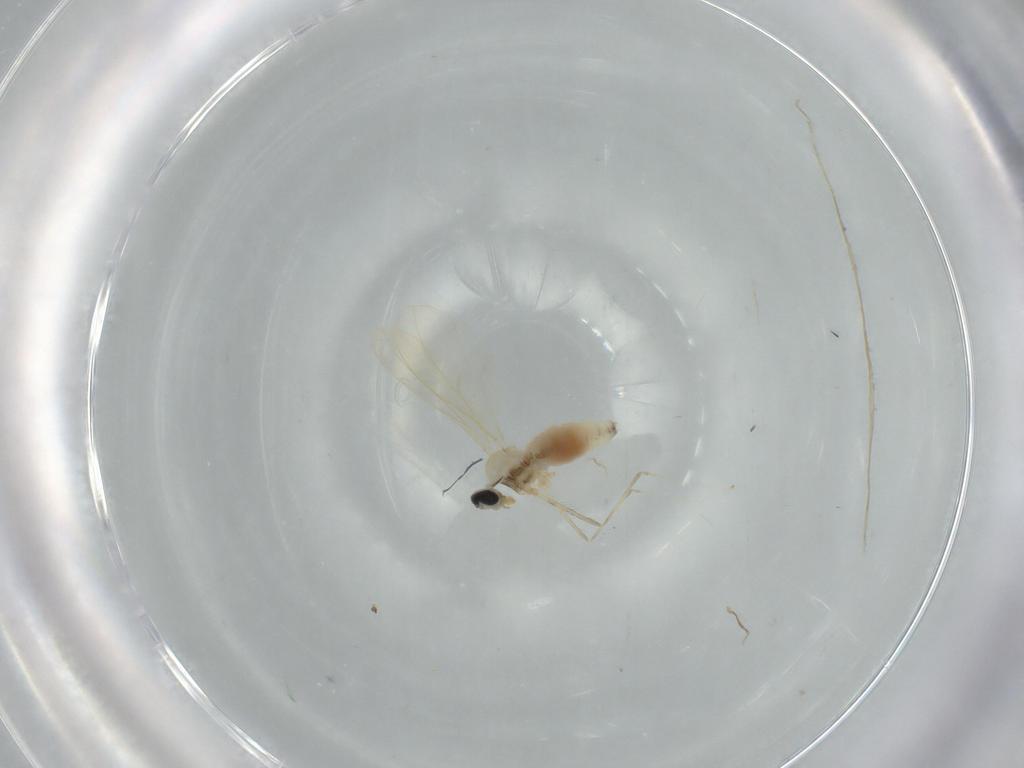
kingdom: Animalia
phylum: Arthropoda
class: Insecta
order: Diptera
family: Cecidomyiidae
